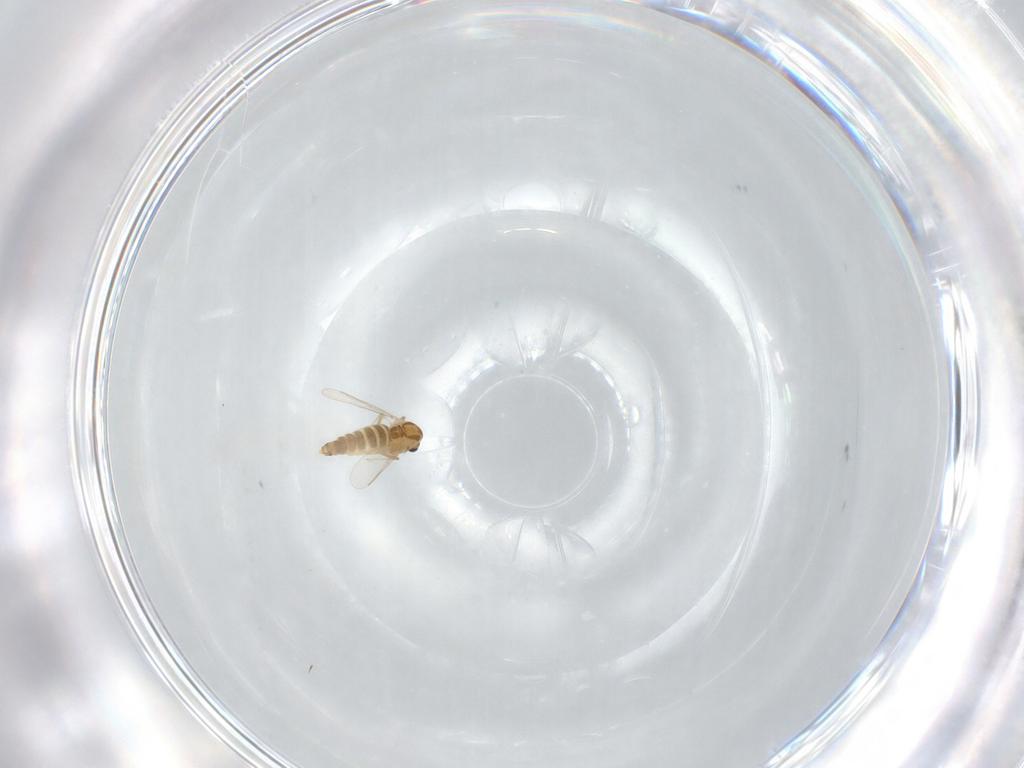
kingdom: Animalia
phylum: Arthropoda
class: Insecta
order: Diptera
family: Chironomidae
